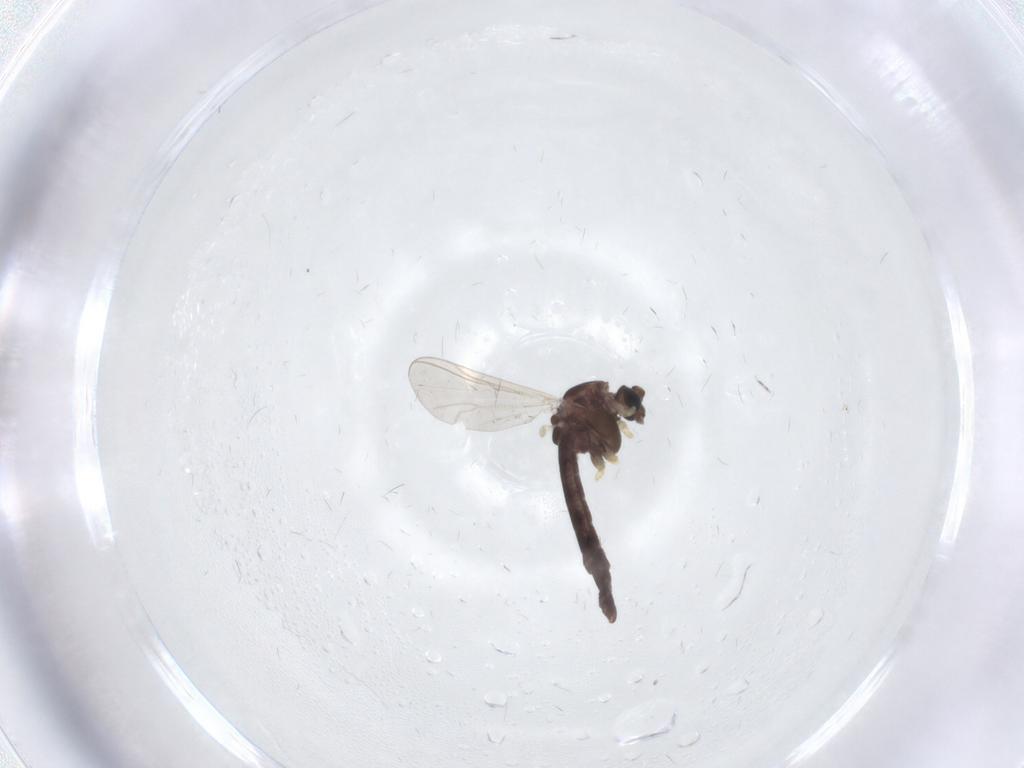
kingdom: Animalia
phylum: Arthropoda
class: Insecta
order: Diptera
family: Chironomidae
